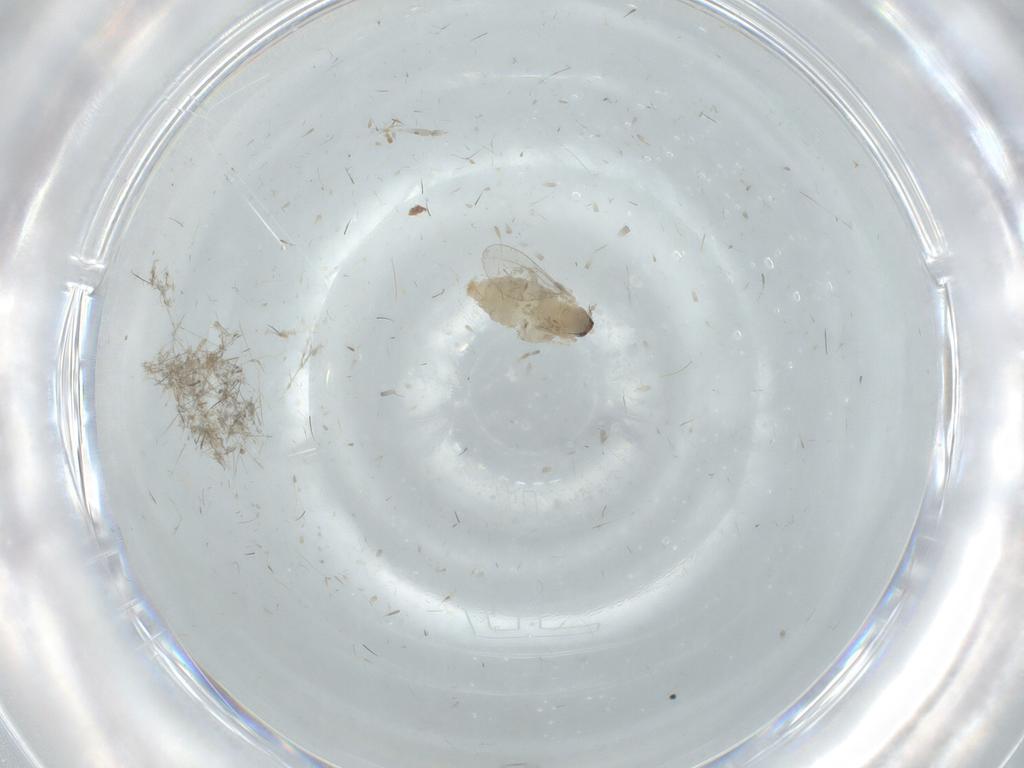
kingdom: Animalia
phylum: Arthropoda
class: Insecta
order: Diptera
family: Cecidomyiidae
